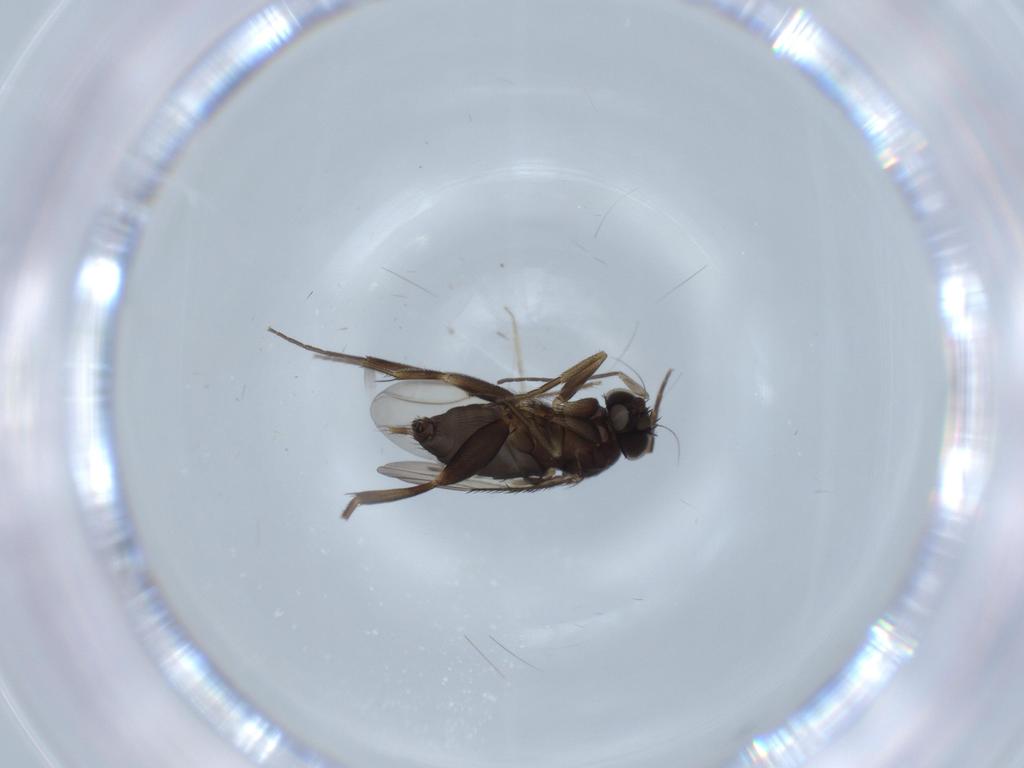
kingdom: Animalia
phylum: Arthropoda
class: Insecta
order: Diptera
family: Phoridae
